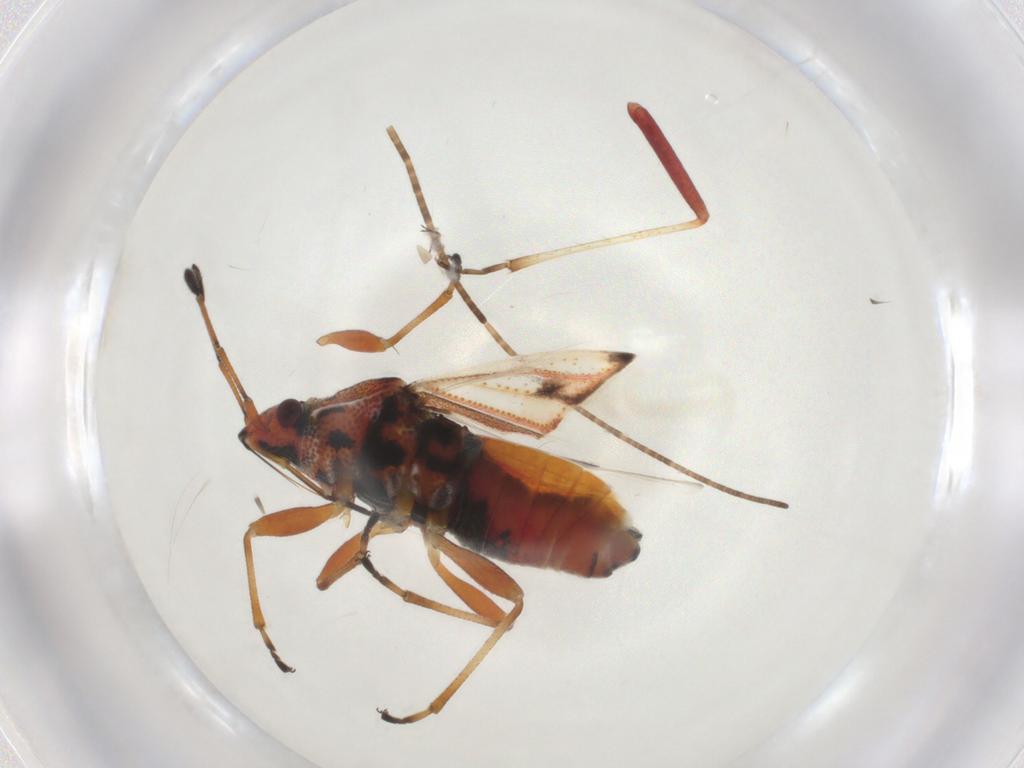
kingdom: Animalia
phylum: Arthropoda
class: Insecta
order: Hemiptera
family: Lygaeidae
